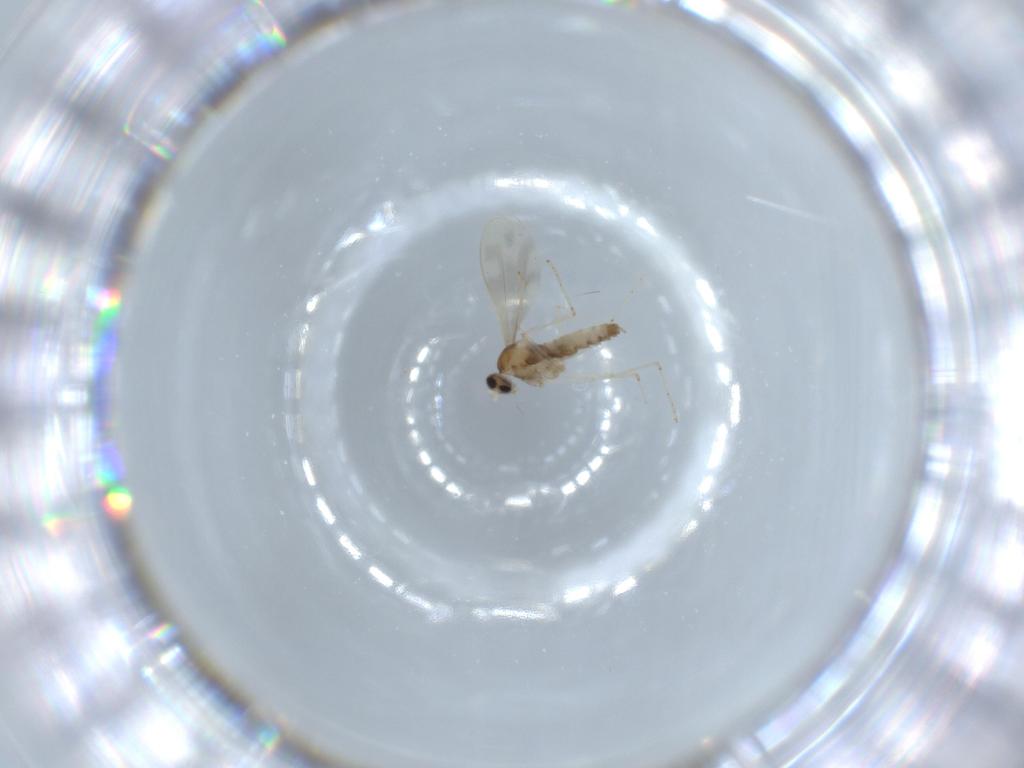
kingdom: Animalia
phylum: Arthropoda
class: Insecta
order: Diptera
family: Cecidomyiidae
